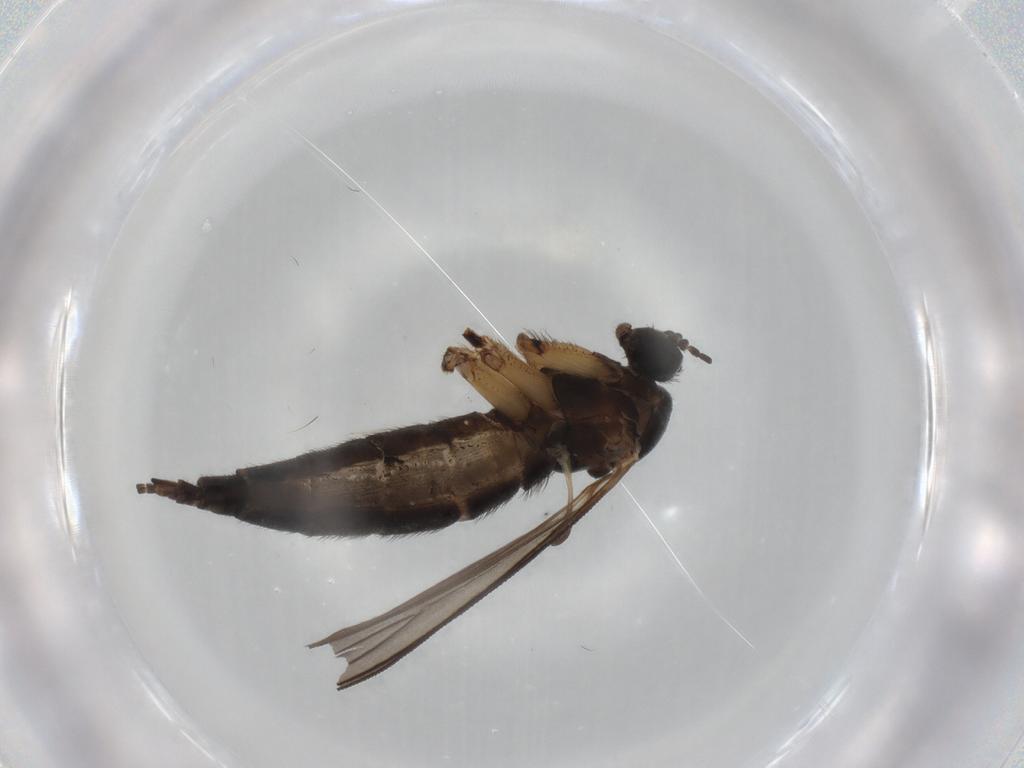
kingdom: Animalia
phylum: Arthropoda
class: Insecta
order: Diptera
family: Sciaridae
